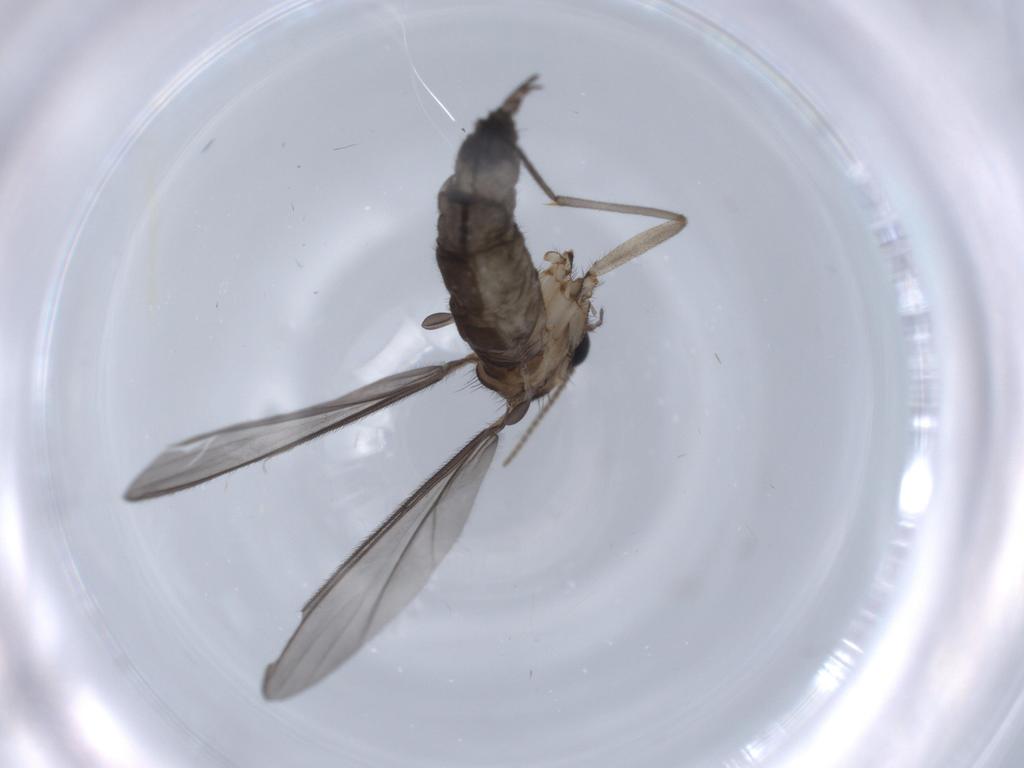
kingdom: Animalia
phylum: Arthropoda
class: Insecta
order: Diptera
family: Sciaridae
